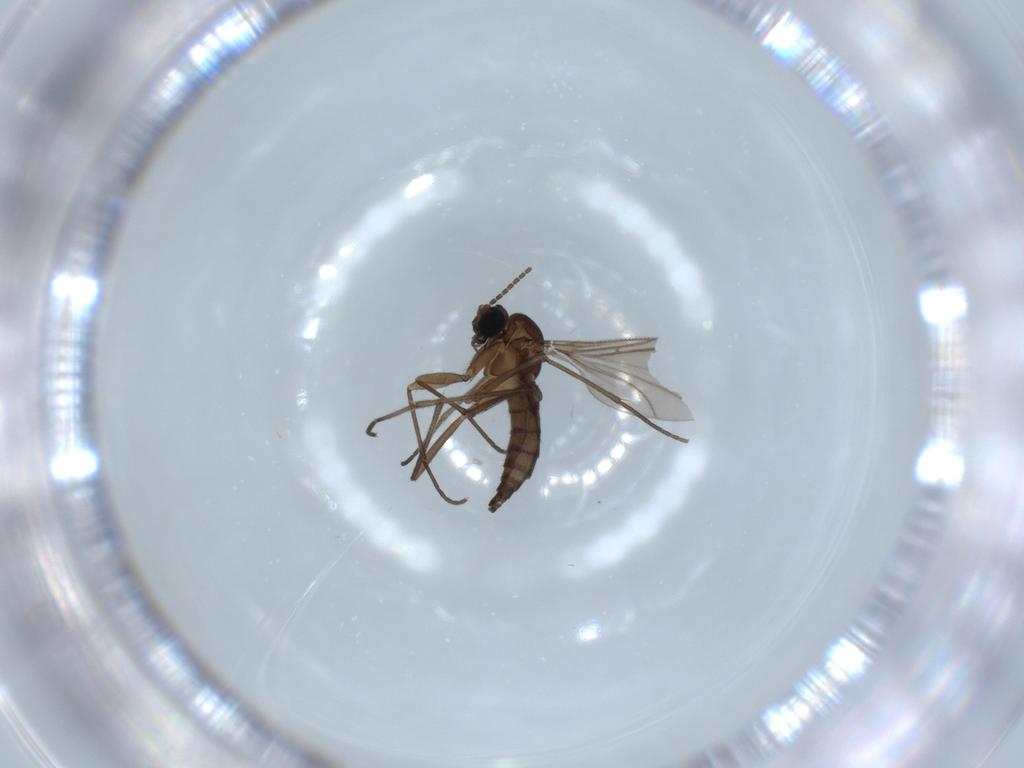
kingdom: Animalia
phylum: Arthropoda
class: Insecta
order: Diptera
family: Sciaridae
